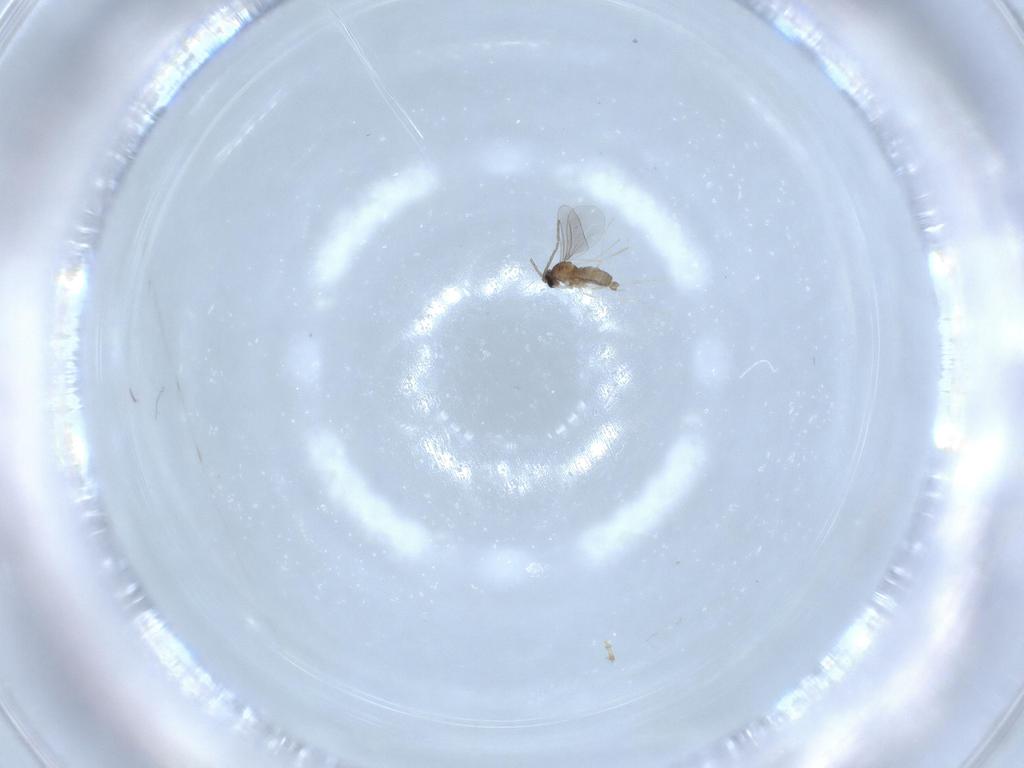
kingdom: Animalia
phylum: Arthropoda
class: Insecta
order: Diptera
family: Cecidomyiidae
